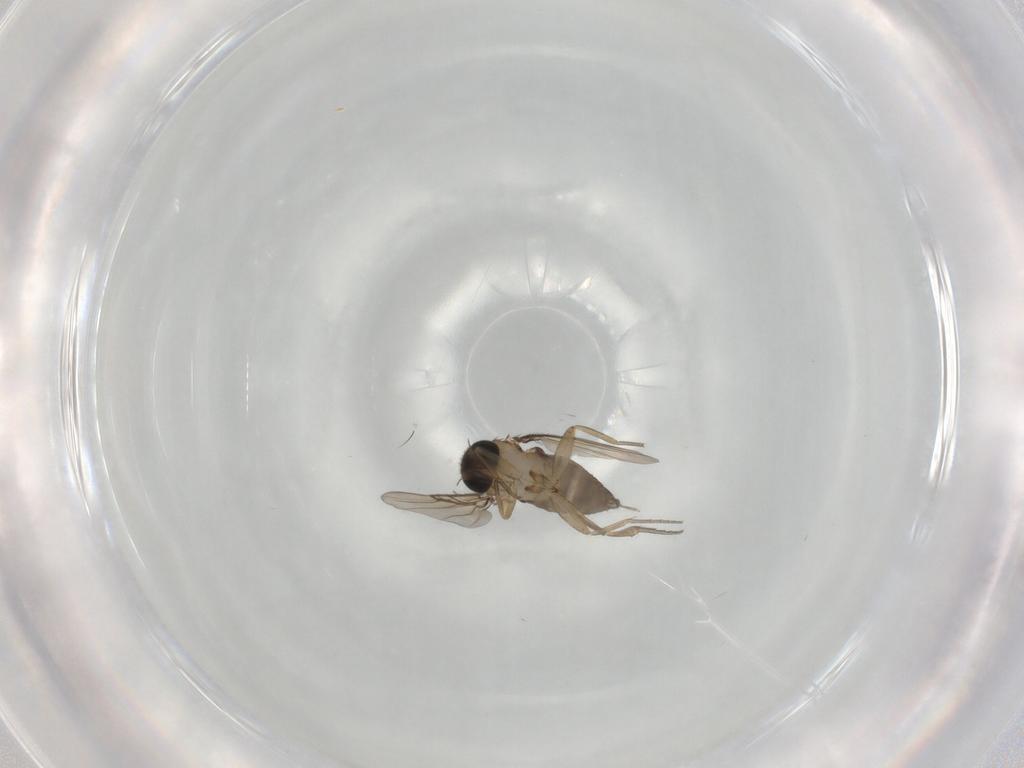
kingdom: Animalia
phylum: Arthropoda
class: Insecta
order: Diptera
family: Phoridae
